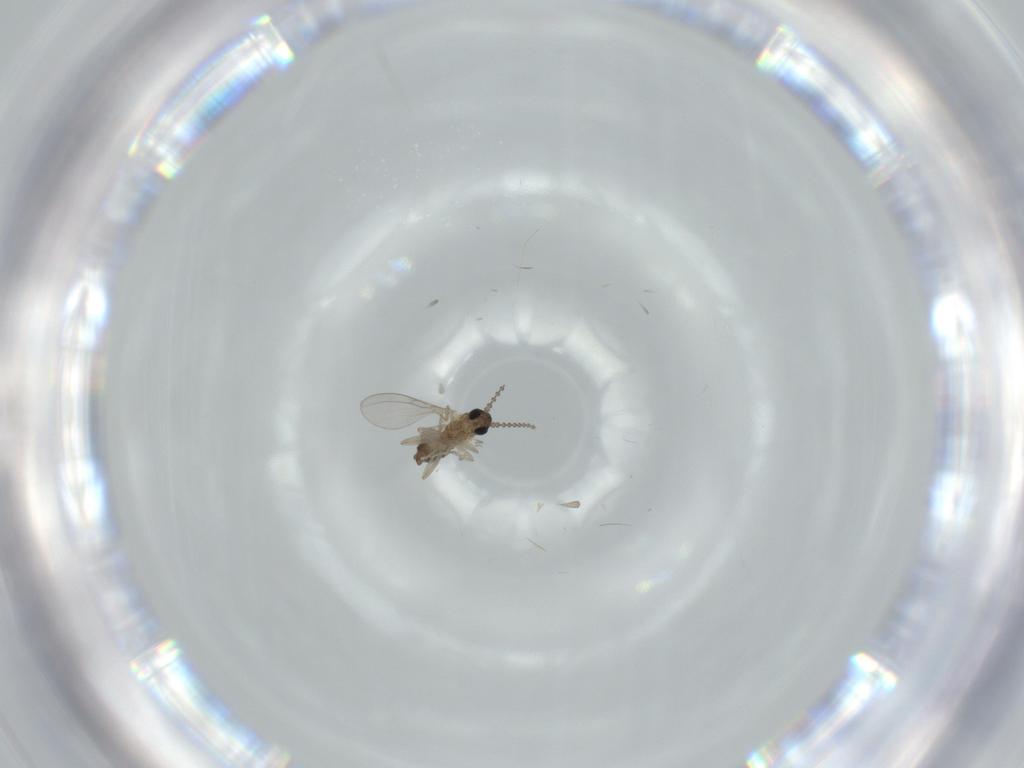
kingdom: Animalia
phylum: Arthropoda
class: Insecta
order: Diptera
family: Cecidomyiidae
